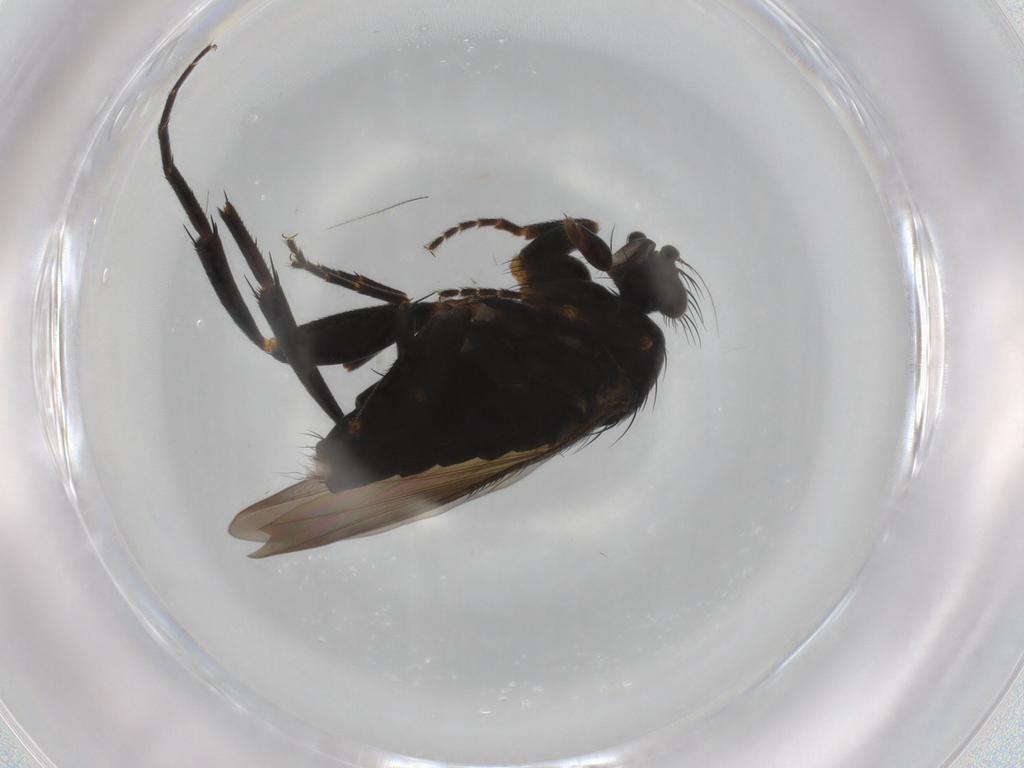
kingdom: Animalia
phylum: Arthropoda
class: Insecta
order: Diptera
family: Phoridae
